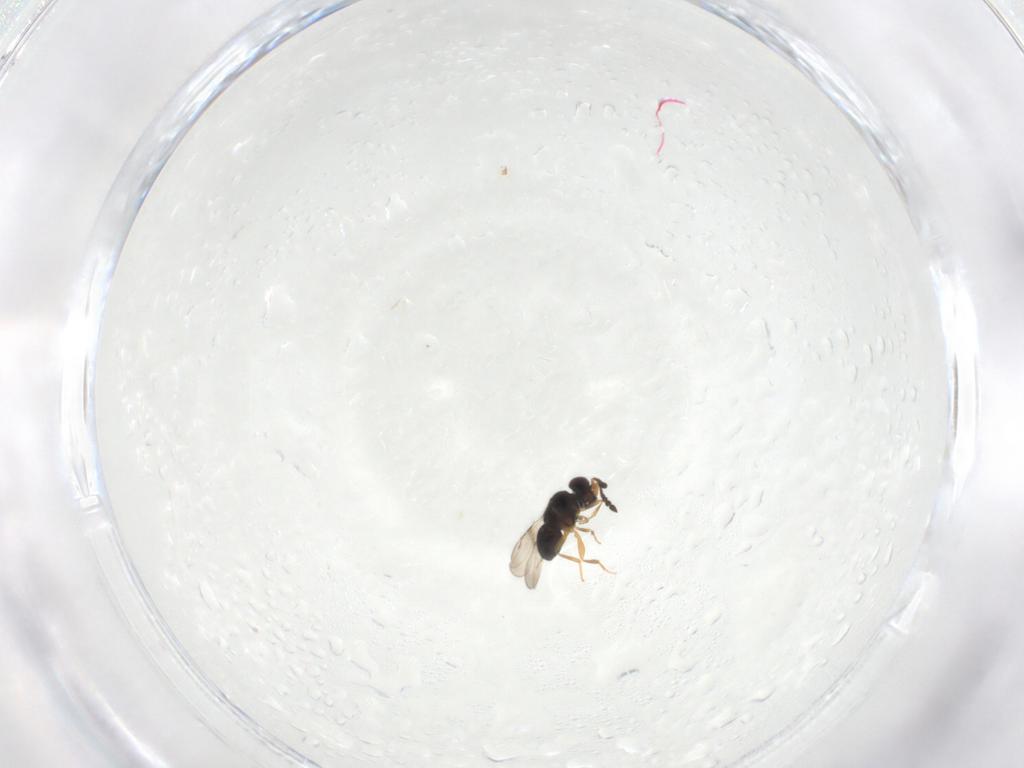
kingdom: Animalia
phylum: Arthropoda
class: Insecta
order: Hymenoptera
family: Ceraphronidae
